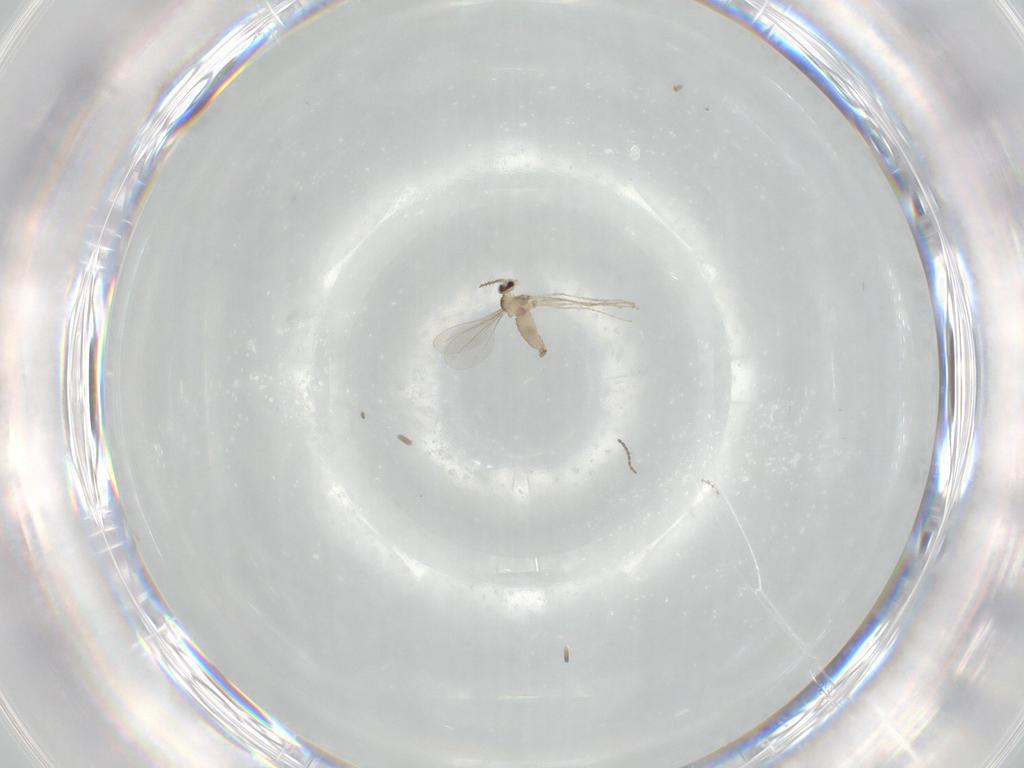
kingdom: Animalia
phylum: Arthropoda
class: Insecta
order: Diptera
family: Cecidomyiidae
